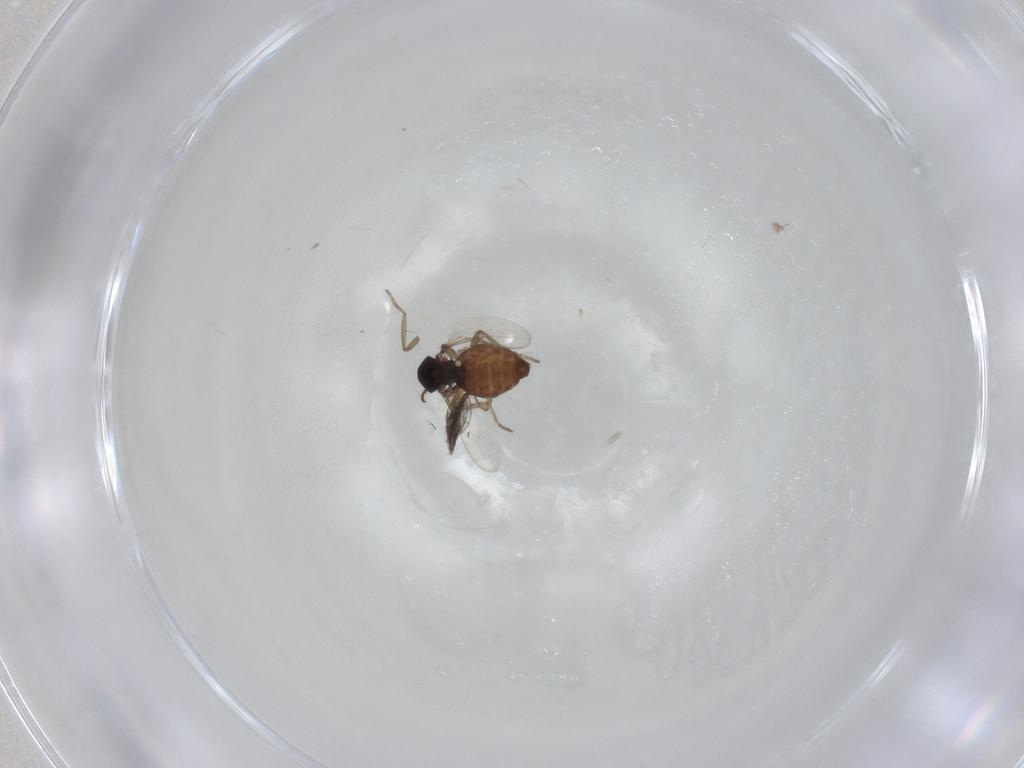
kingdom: Animalia
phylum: Arthropoda
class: Insecta
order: Diptera
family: Ceratopogonidae
